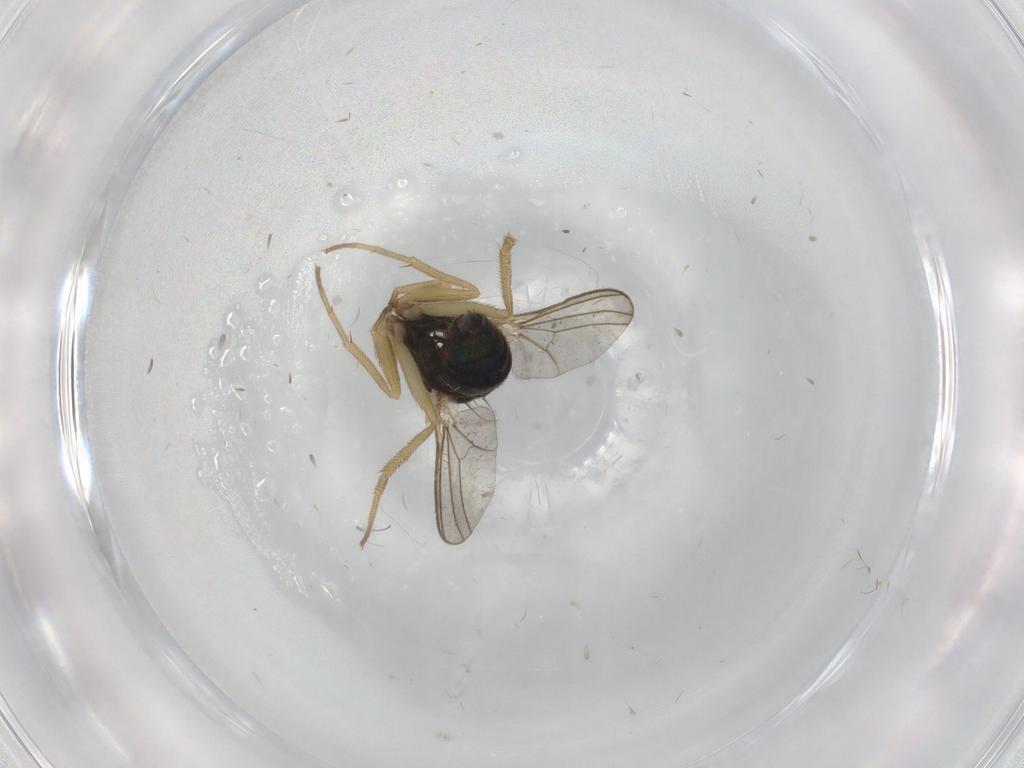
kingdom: Animalia
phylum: Arthropoda
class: Insecta
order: Diptera
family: Dolichopodidae
